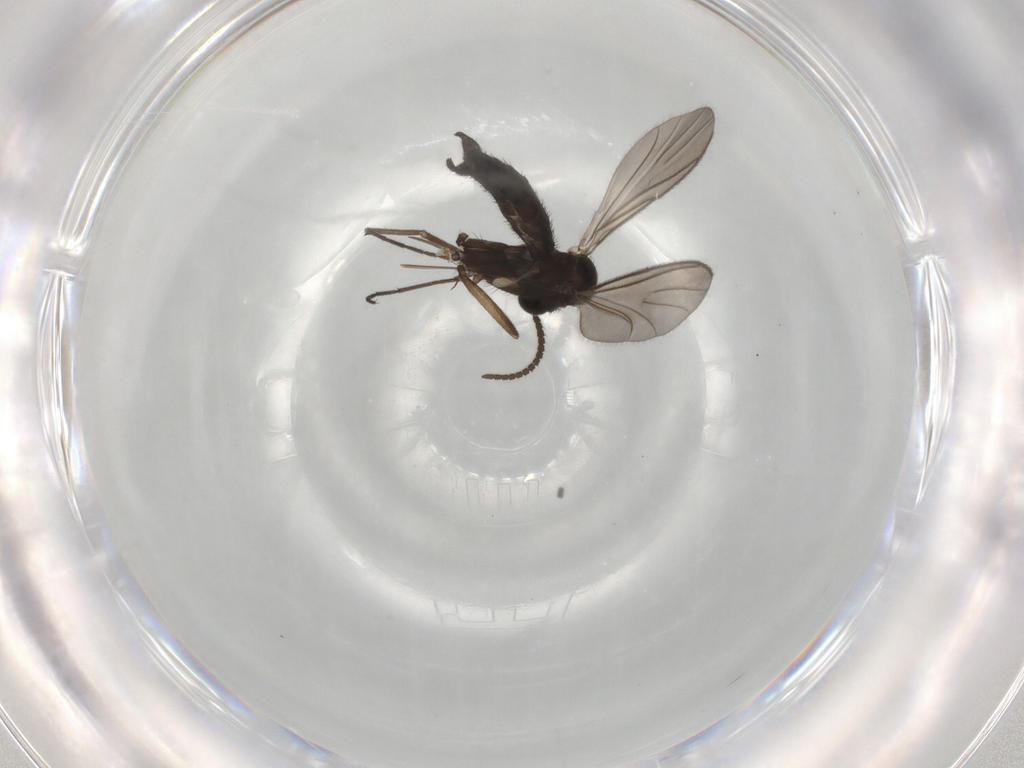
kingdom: Animalia
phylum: Arthropoda
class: Insecta
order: Diptera
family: Keroplatidae
